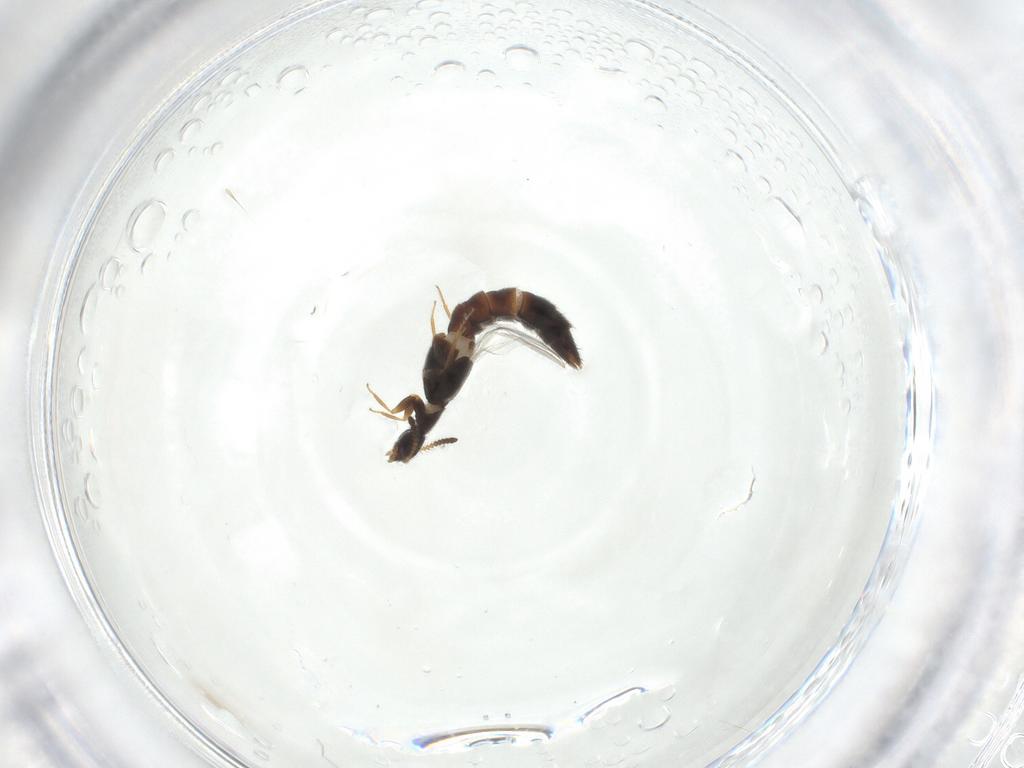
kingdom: Animalia
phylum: Arthropoda
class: Insecta
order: Coleoptera
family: Staphylinidae
